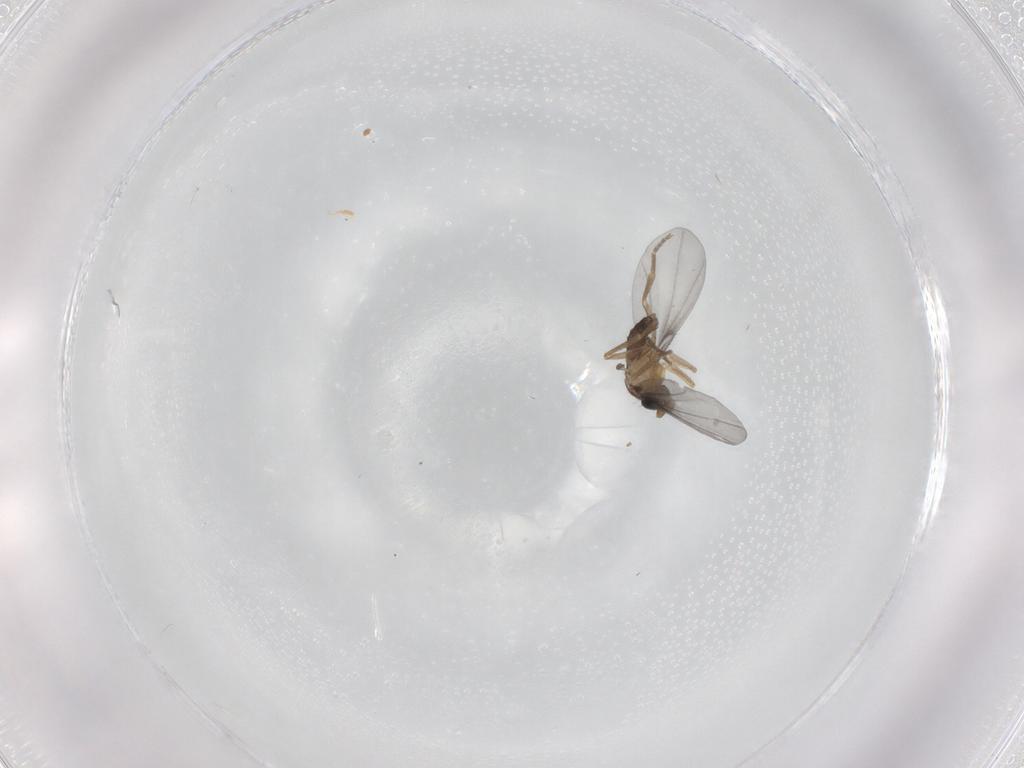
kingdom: Animalia
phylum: Arthropoda
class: Insecta
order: Diptera
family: Phoridae
